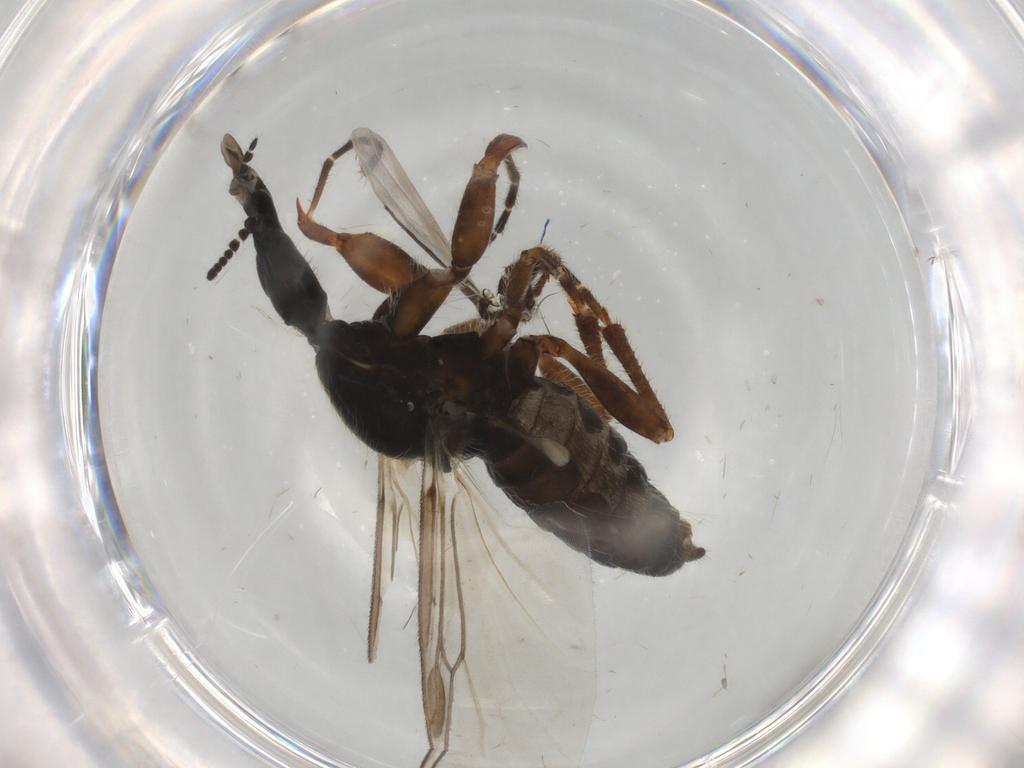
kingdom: Animalia
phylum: Arthropoda
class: Insecta
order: Diptera
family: Bibionidae
